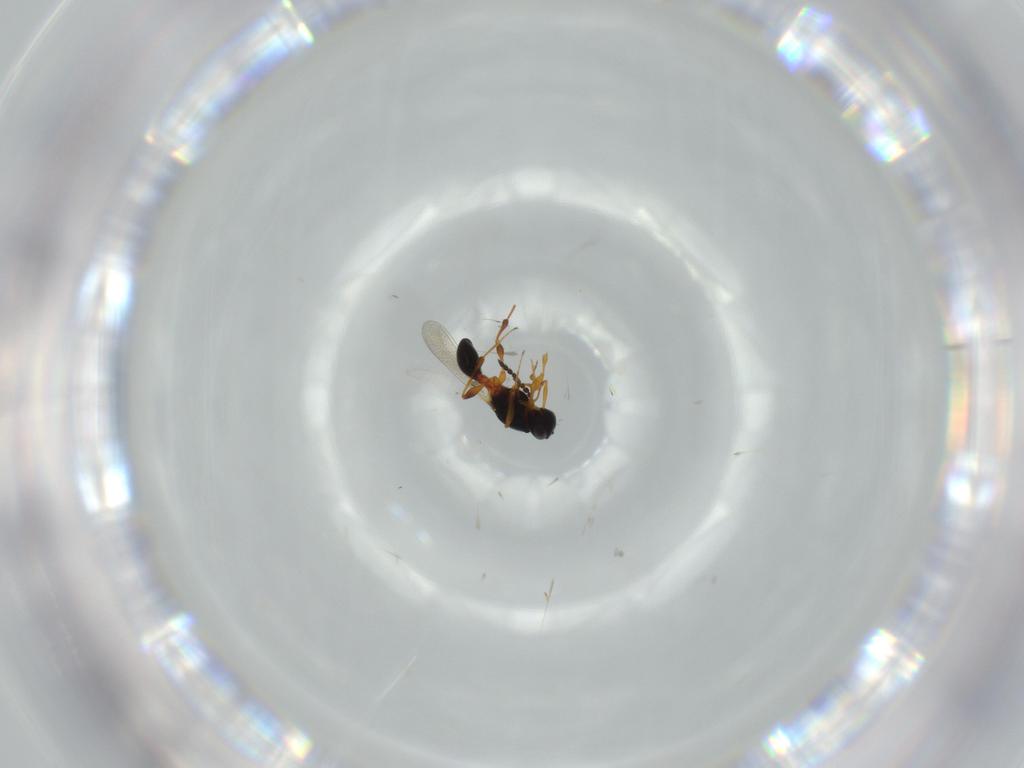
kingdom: Animalia
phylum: Arthropoda
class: Insecta
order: Hymenoptera
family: Platygastridae
